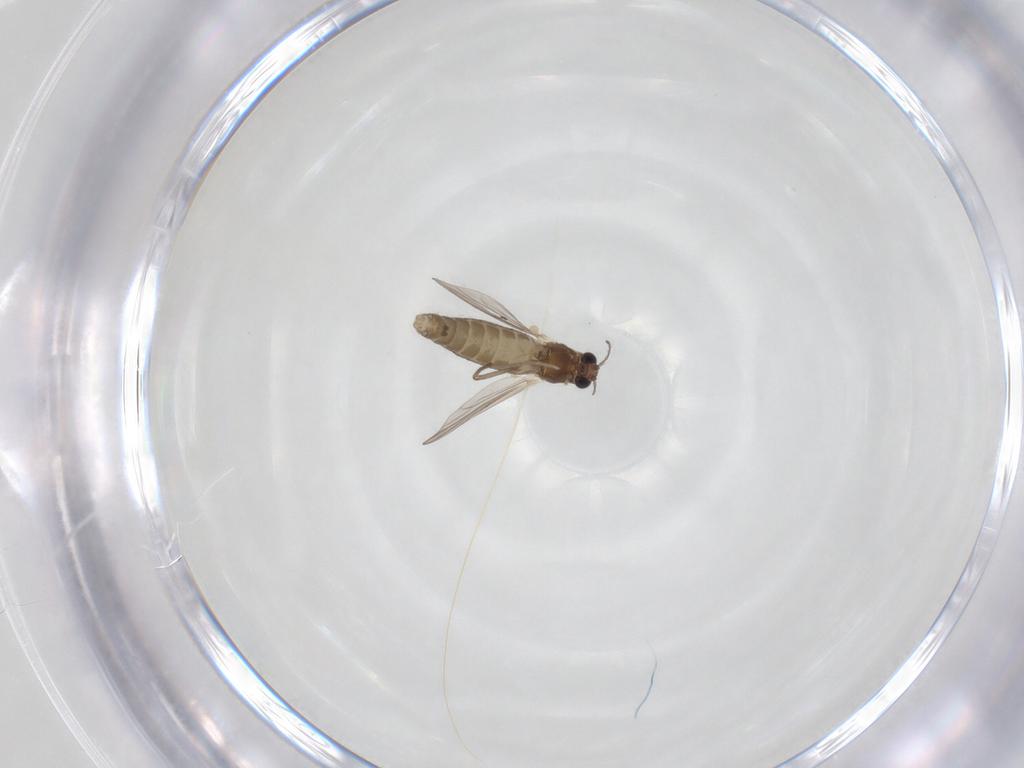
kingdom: Animalia
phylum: Arthropoda
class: Insecta
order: Diptera
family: Chironomidae
